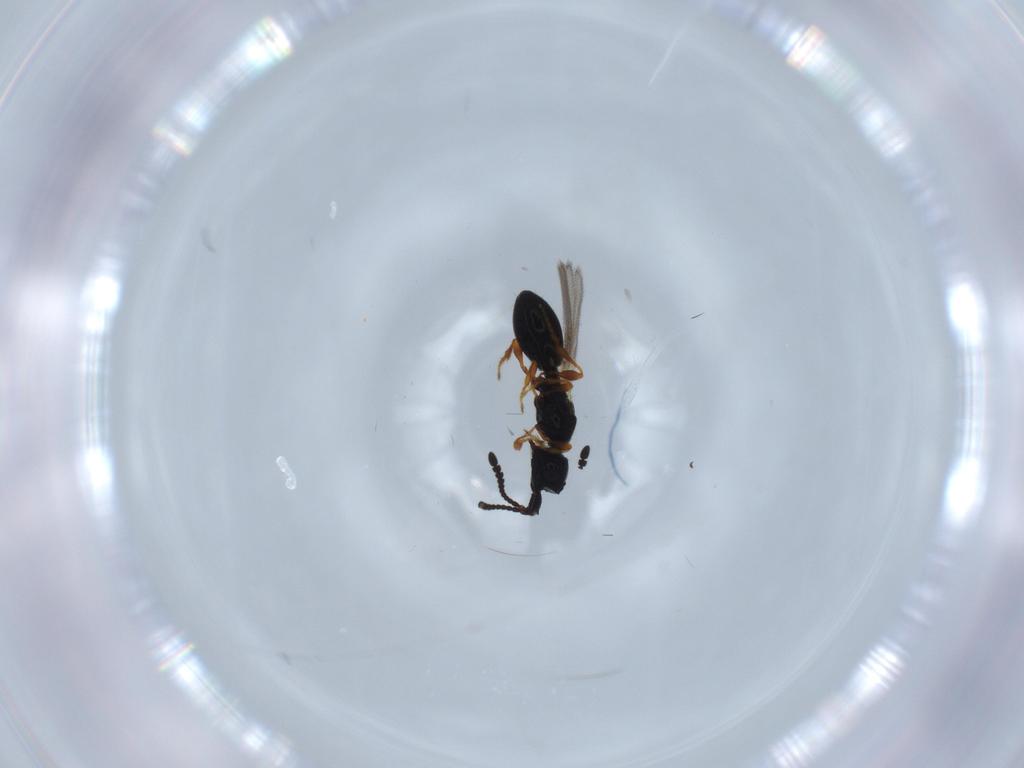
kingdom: Animalia
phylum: Arthropoda
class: Insecta
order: Hymenoptera
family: Diapriidae
